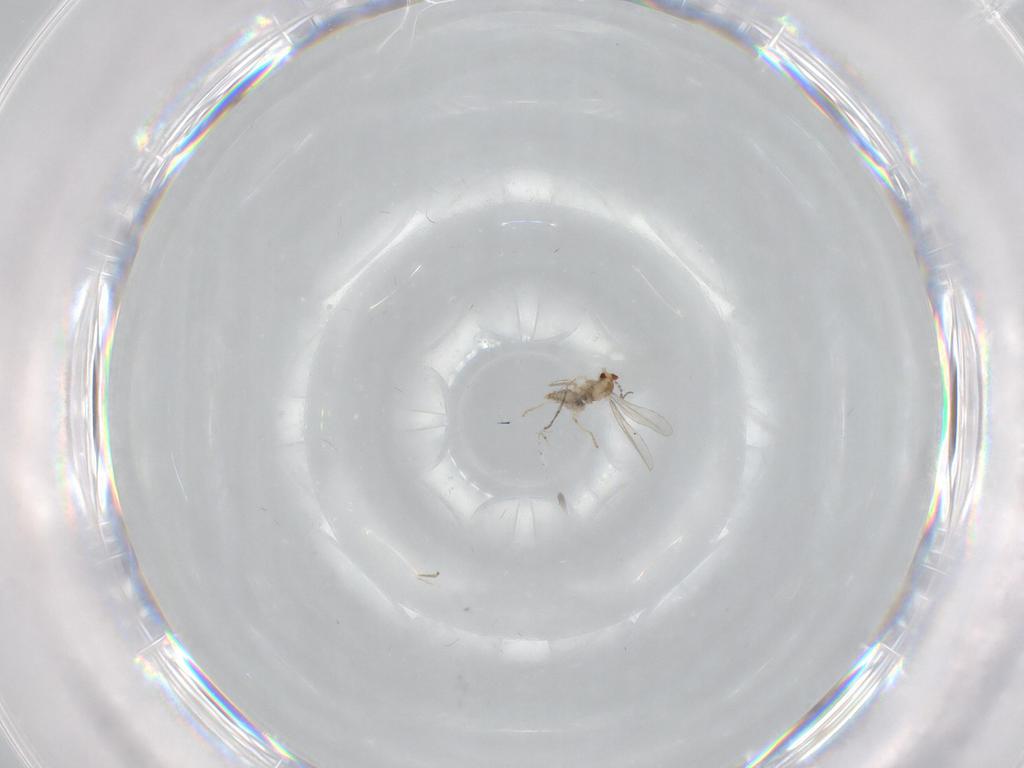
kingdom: Animalia
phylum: Arthropoda
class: Insecta
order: Diptera
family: Cecidomyiidae
